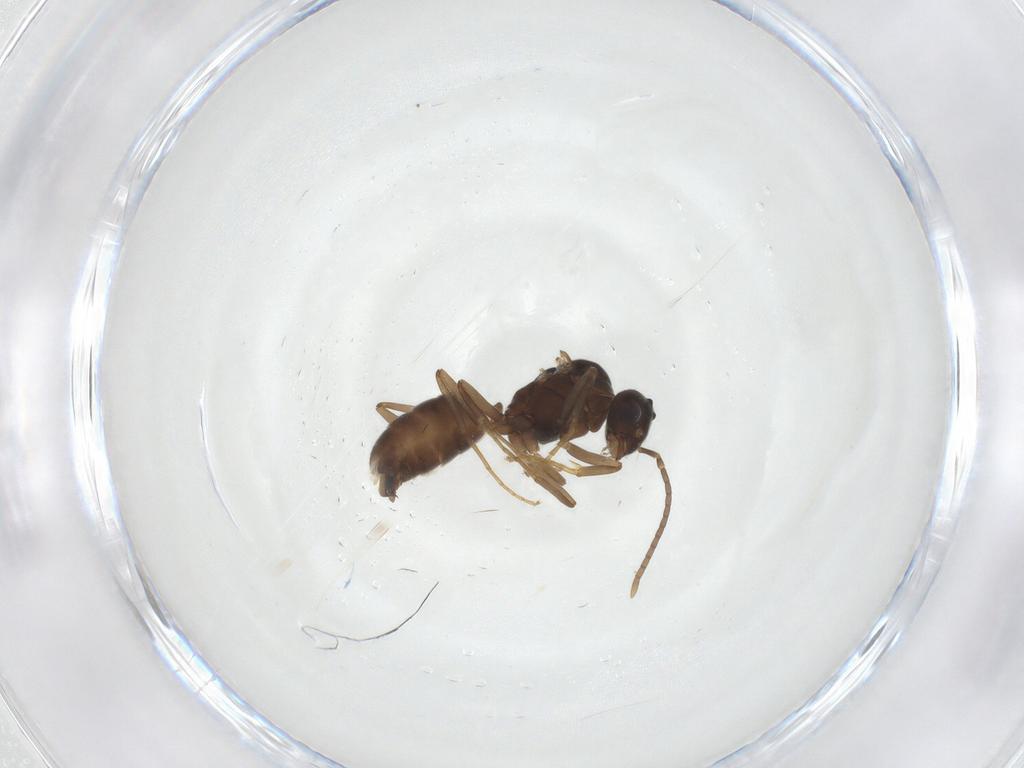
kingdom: Animalia
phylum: Arthropoda
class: Insecta
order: Hymenoptera
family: Formicidae
